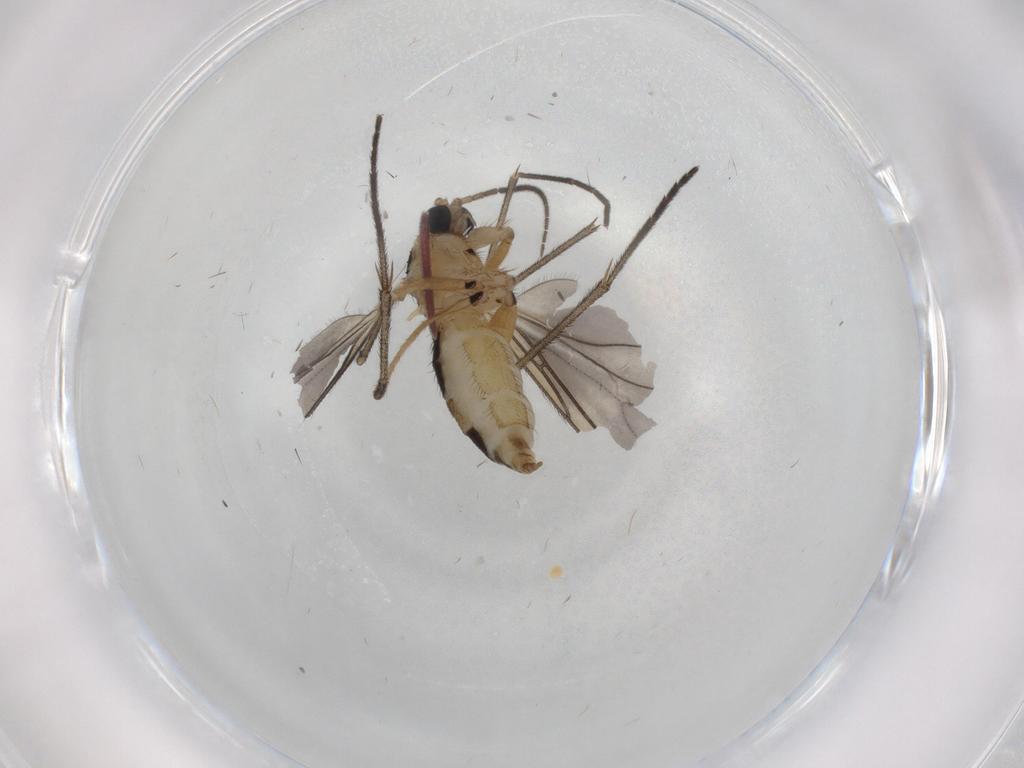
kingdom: Animalia
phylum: Arthropoda
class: Insecta
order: Diptera
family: Sciaridae
